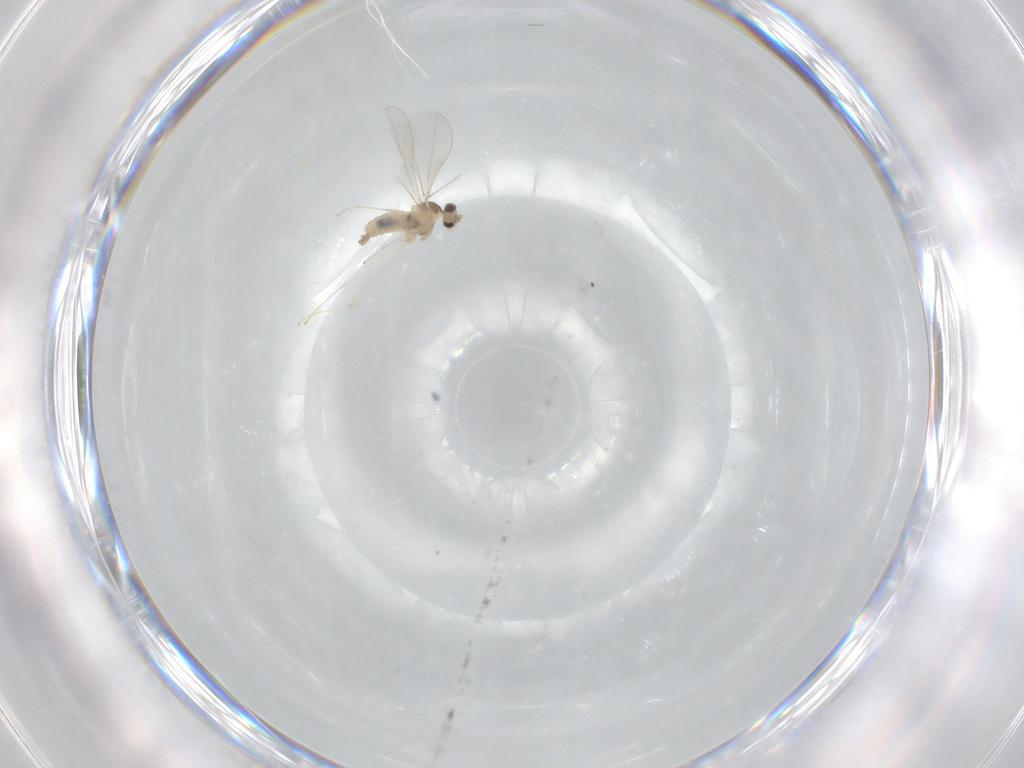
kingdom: Animalia
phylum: Arthropoda
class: Insecta
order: Diptera
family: Cecidomyiidae
